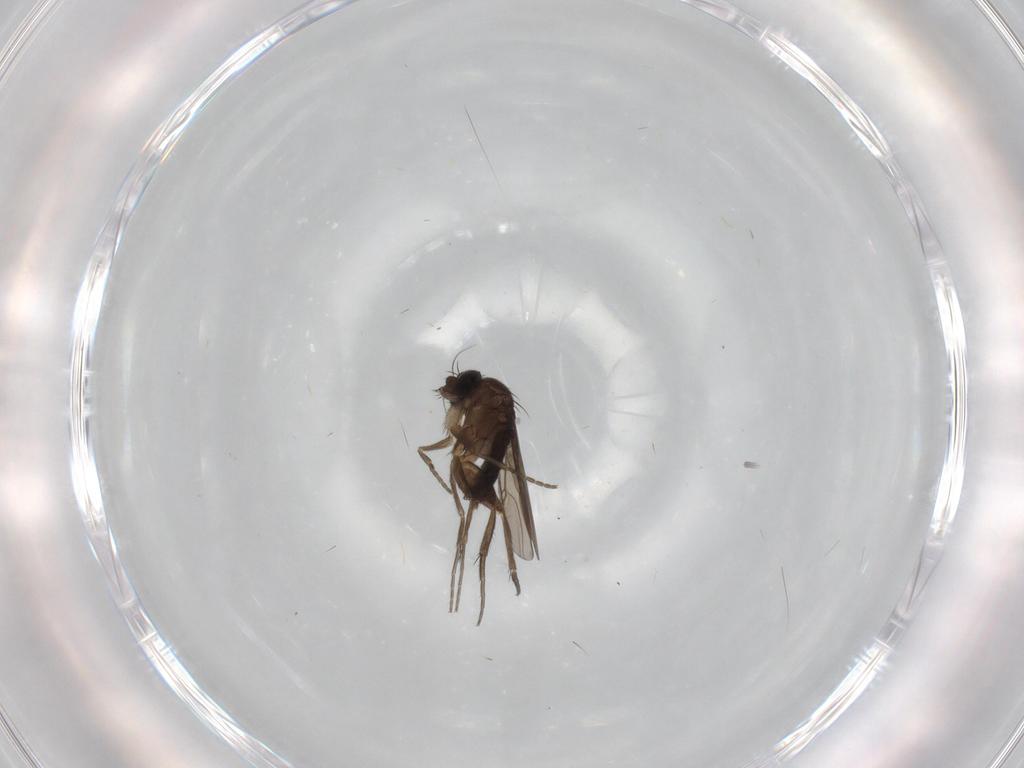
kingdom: Animalia
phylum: Arthropoda
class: Insecta
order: Diptera
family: Phoridae
